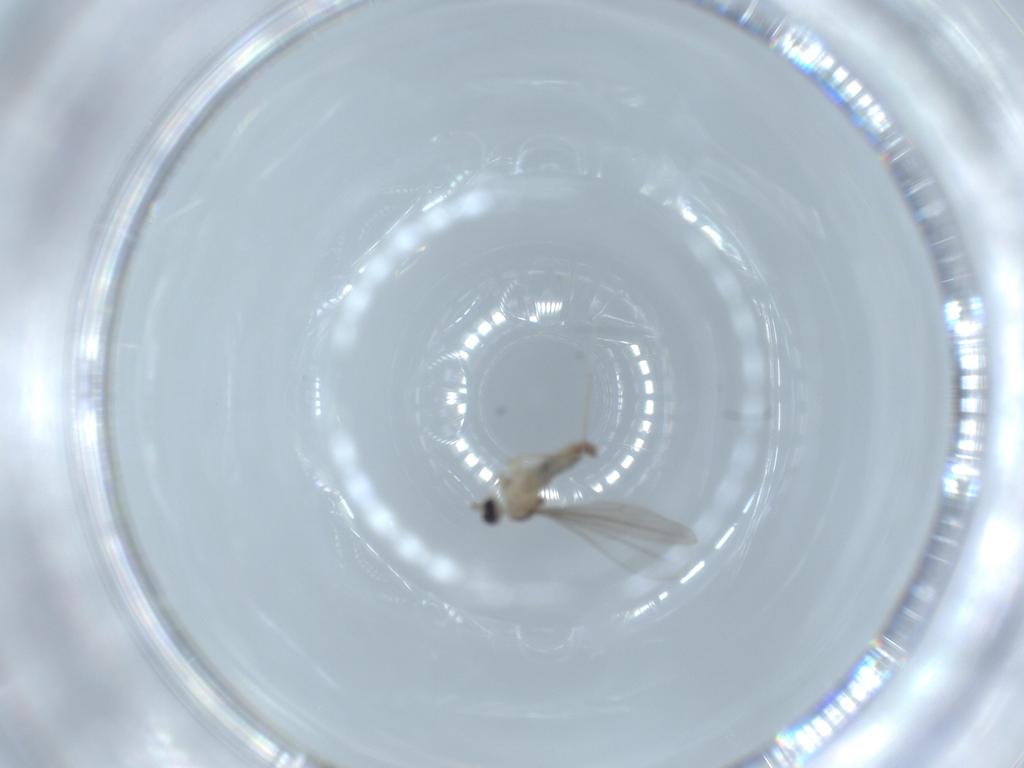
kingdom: Animalia
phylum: Arthropoda
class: Insecta
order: Diptera
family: Cecidomyiidae
